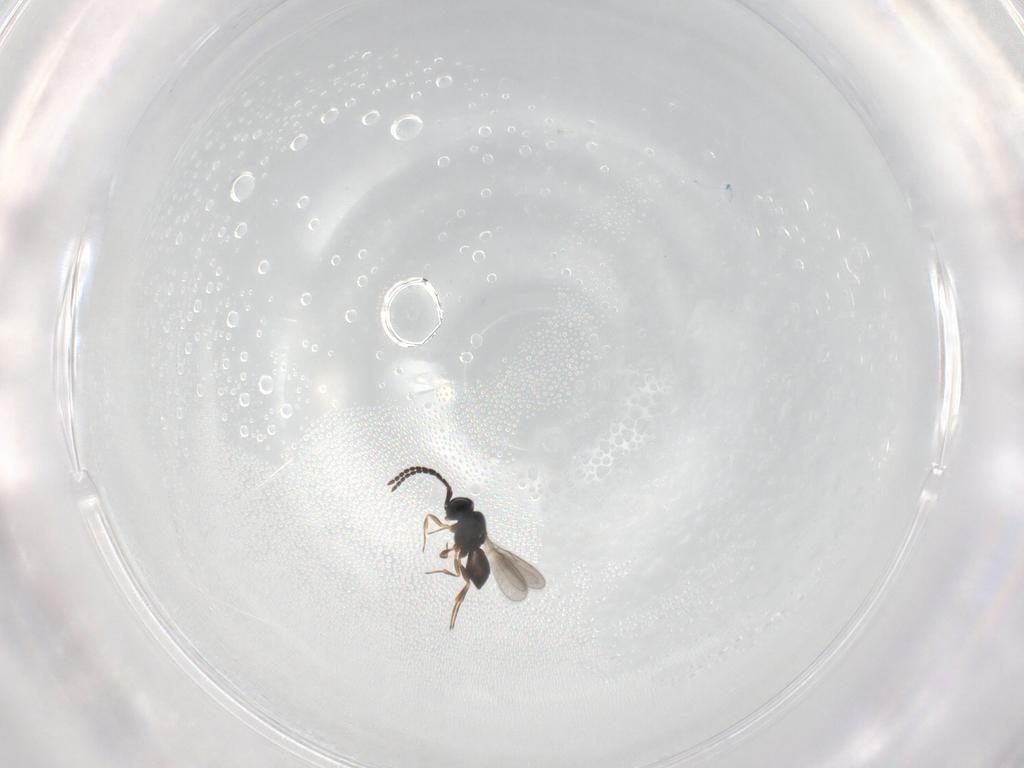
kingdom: Animalia
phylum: Arthropoda
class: Insecta
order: Hymenoptera
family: Scelionidae
